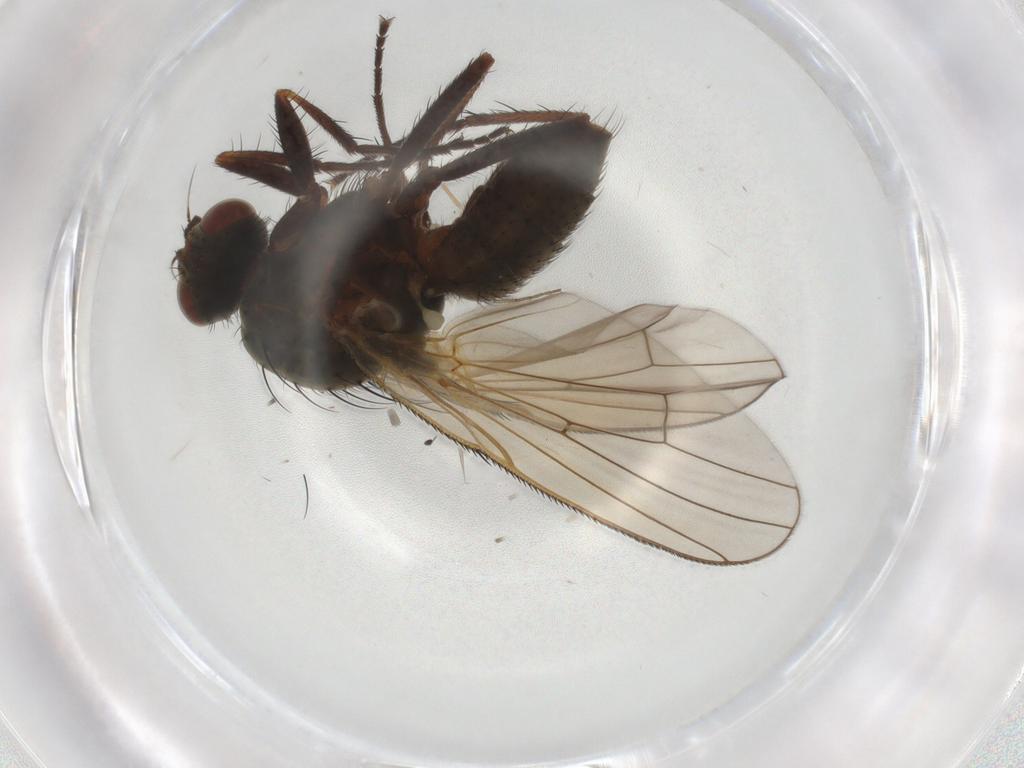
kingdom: Animalia
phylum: Arthropoda
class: Insecta
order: Diptera
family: Anthomyiidae
